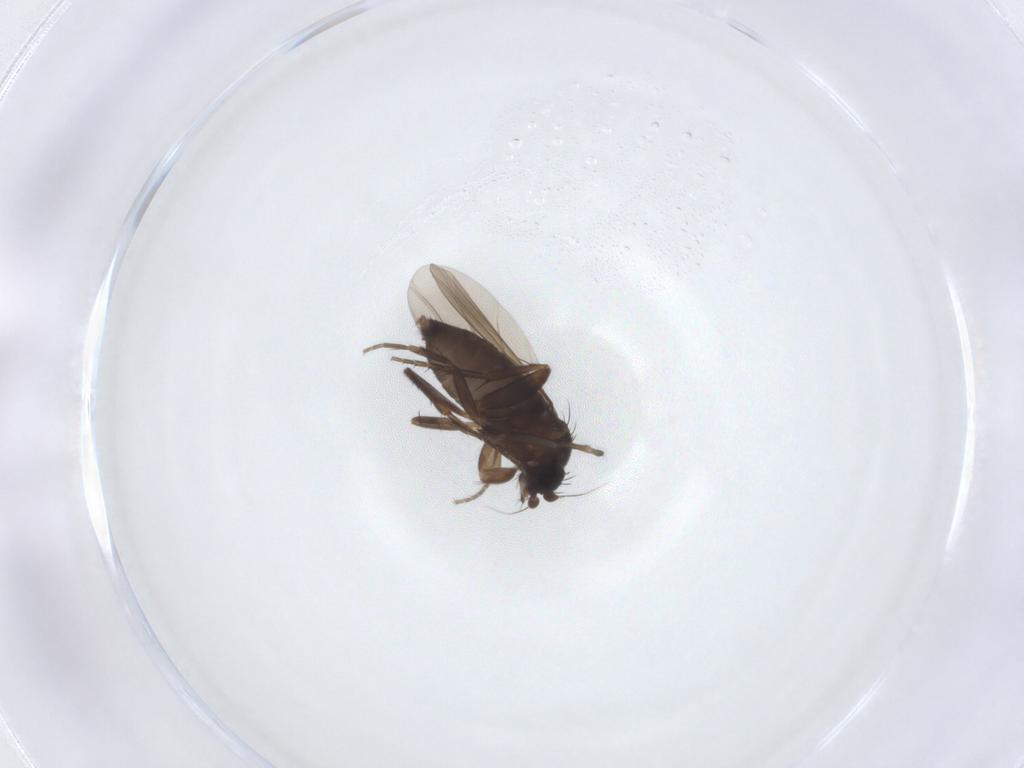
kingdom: Animalia
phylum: Arthropoda
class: Insecta
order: Diptera
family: Phoridae
